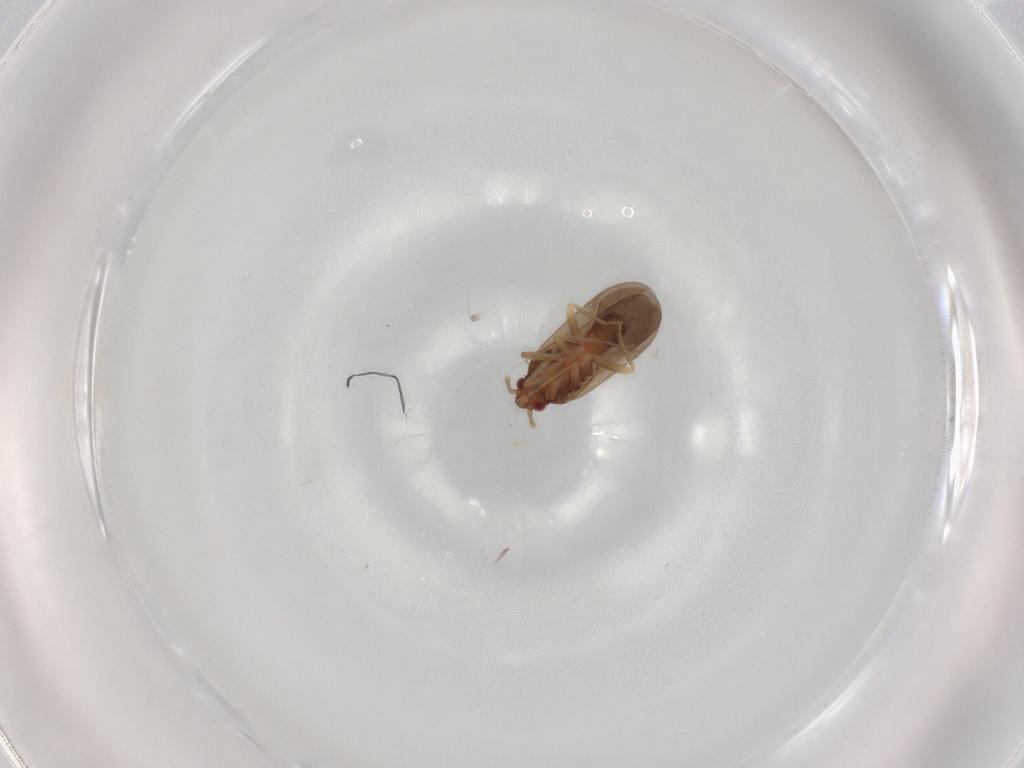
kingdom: Animalia
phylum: Arthropoda
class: Insecta
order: Hemiptera
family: Ceratocombidae
